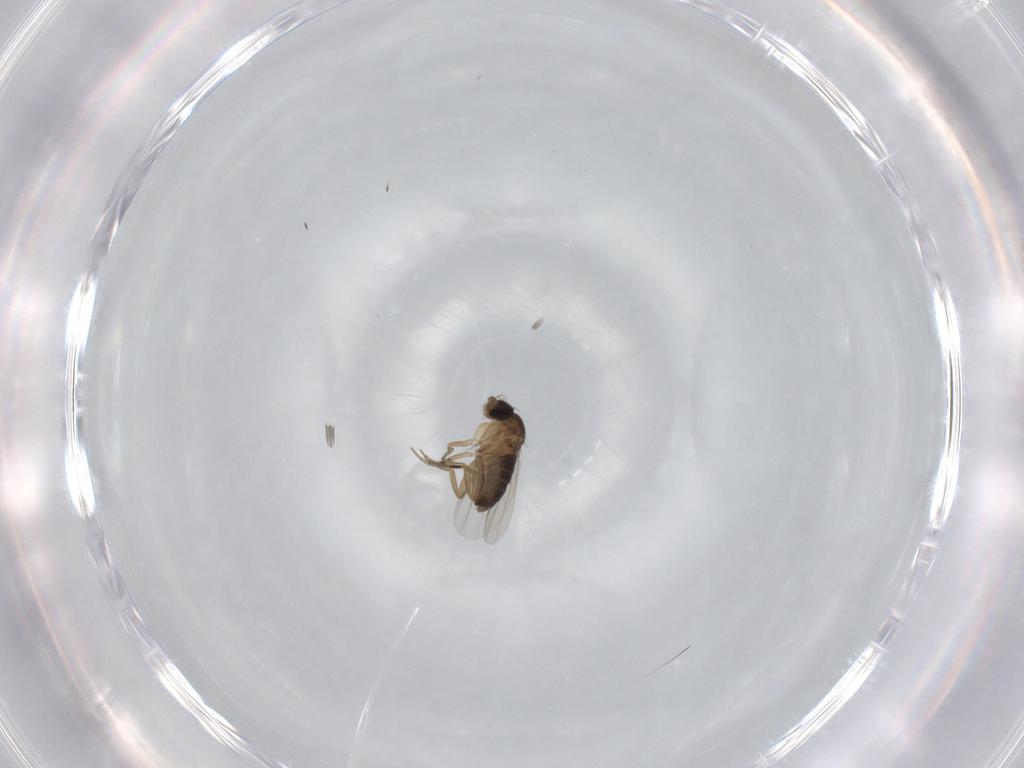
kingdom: Animalia
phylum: Arthropoda
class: Insecta
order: Diptera
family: Phoridae
